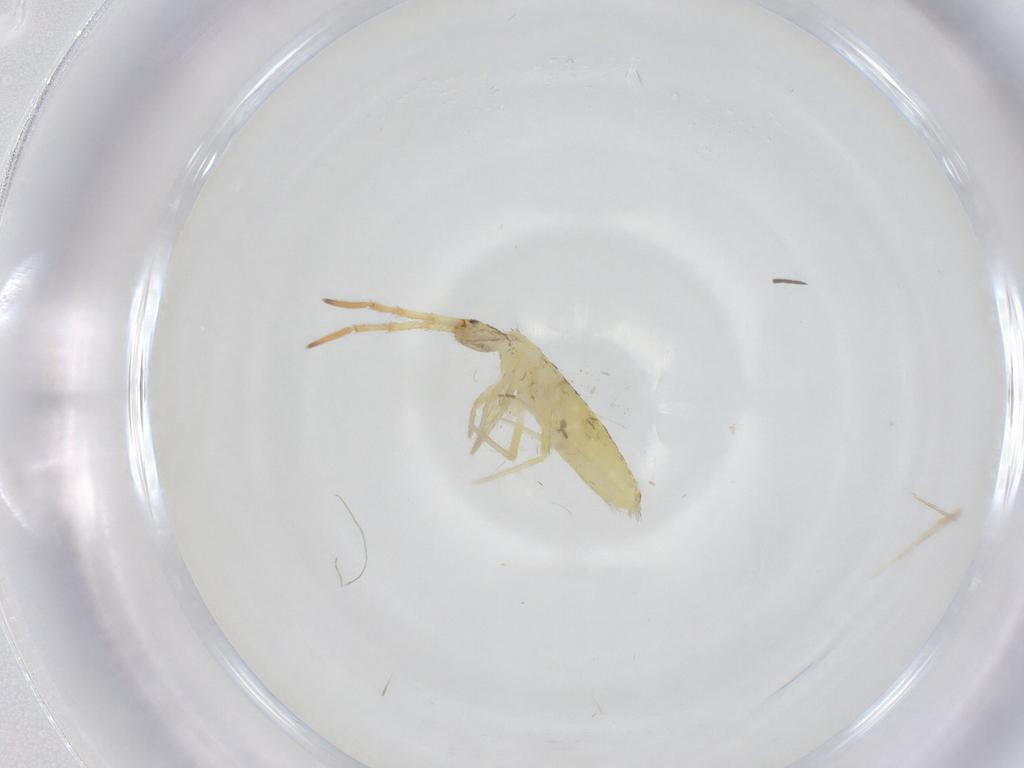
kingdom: Animalia
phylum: Arthropoda
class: Collembola
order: Entomobryomorpha
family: Entomobryidae
